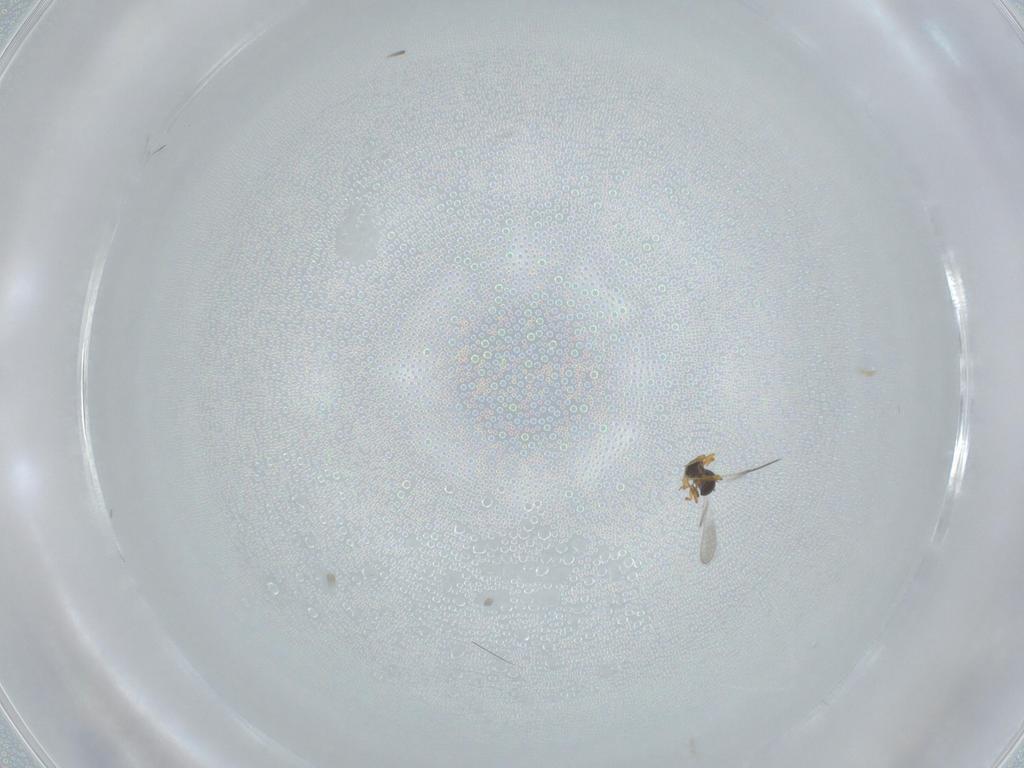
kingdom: Animalia
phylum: Arthropoda
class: Insecta
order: Hymenoptera
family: Platygastridae
